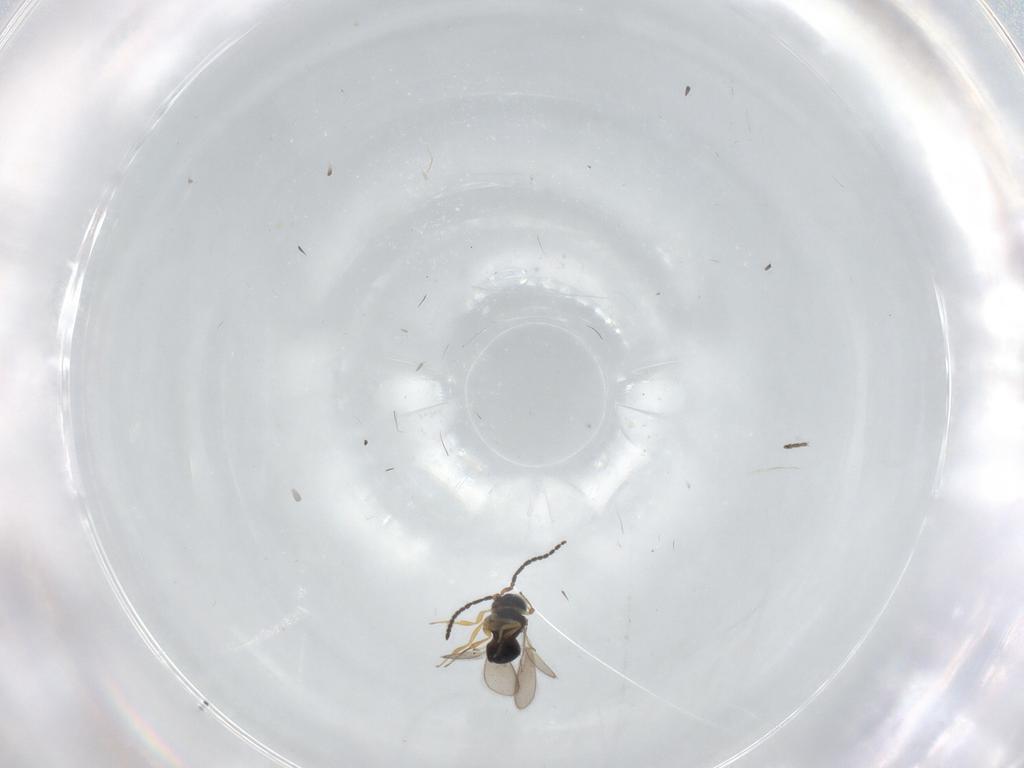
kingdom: Animalia
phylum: Arthropoda
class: Insecta
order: Hymenoptera
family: Scelionidae
